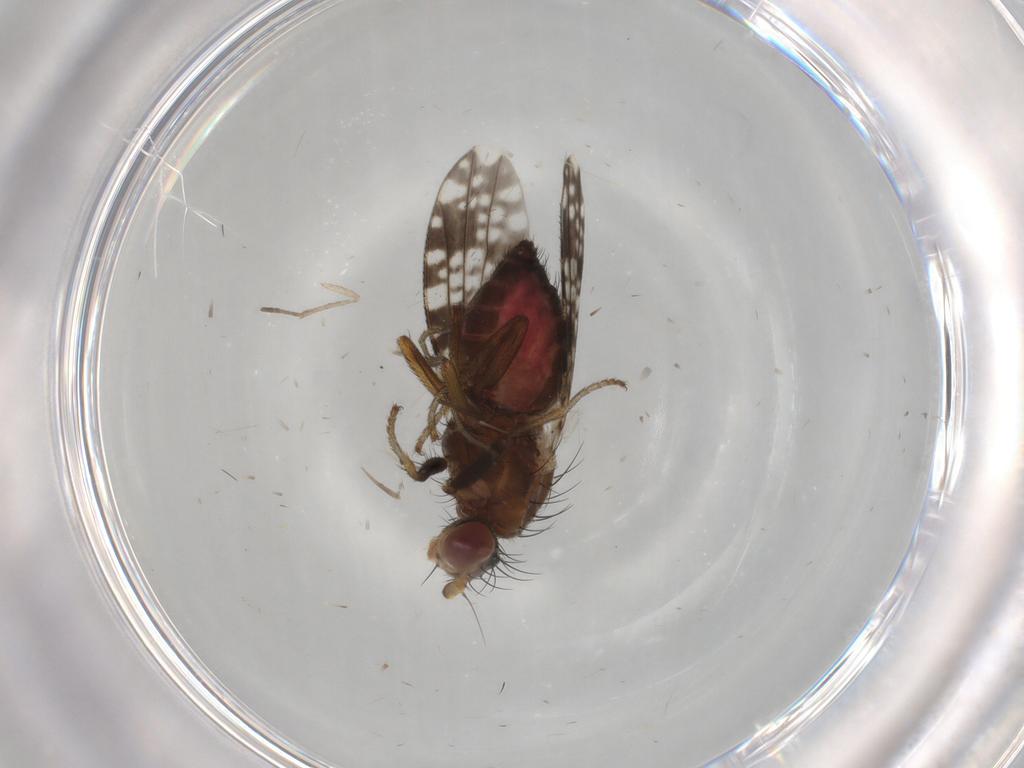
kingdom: Animalia
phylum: Arthropoda
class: Insecta
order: Diptera
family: Tephritidae
